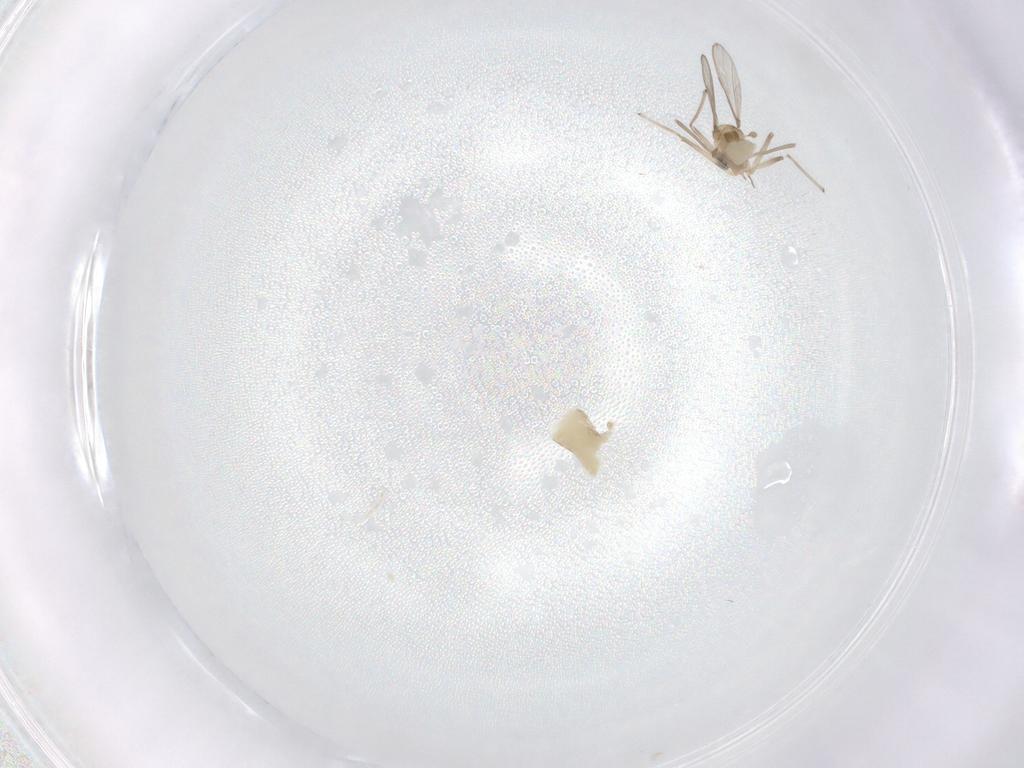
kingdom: Animalia
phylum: Arthropoda
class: Insecta
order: Diptera
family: Chironomidae
